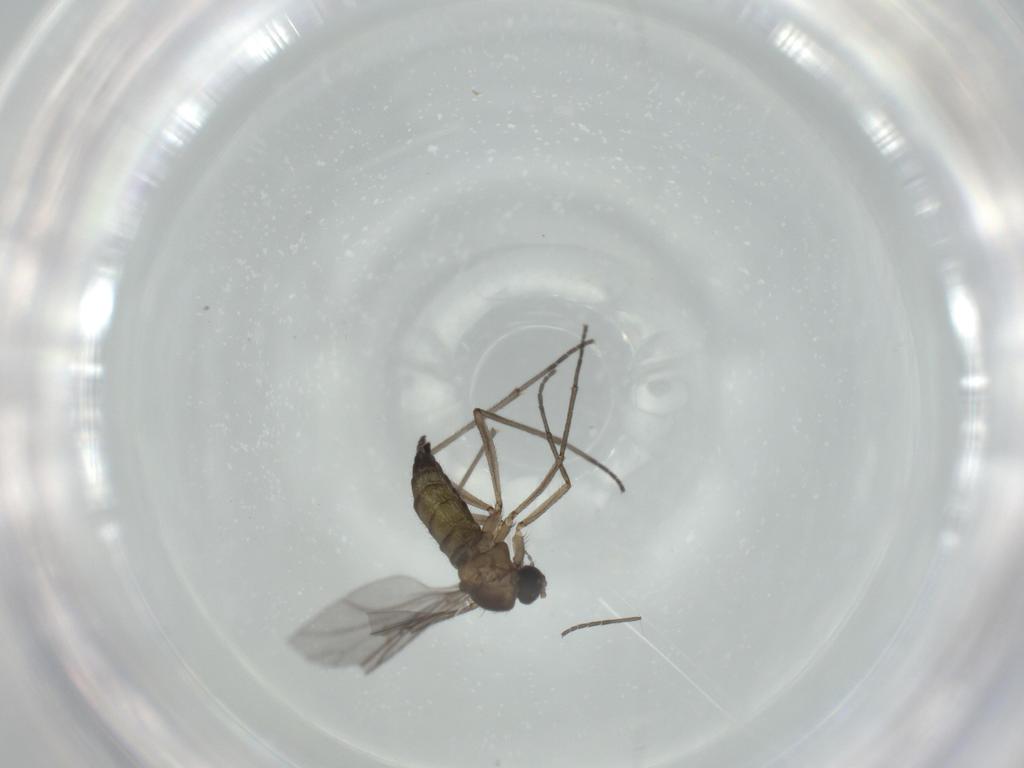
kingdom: Animalia
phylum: Arthropoda
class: Insecta
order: Diptera
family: Sciaridae
